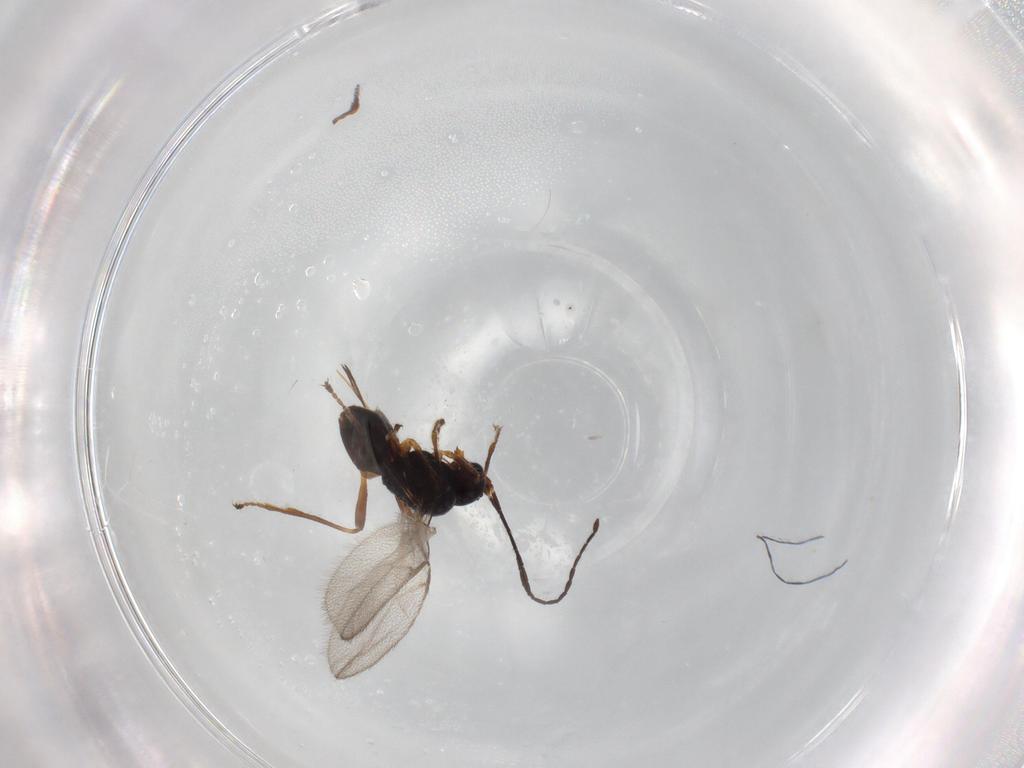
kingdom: Animalia
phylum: Arthropoda
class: Insecta
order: Hymenoptera
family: Braconidae
